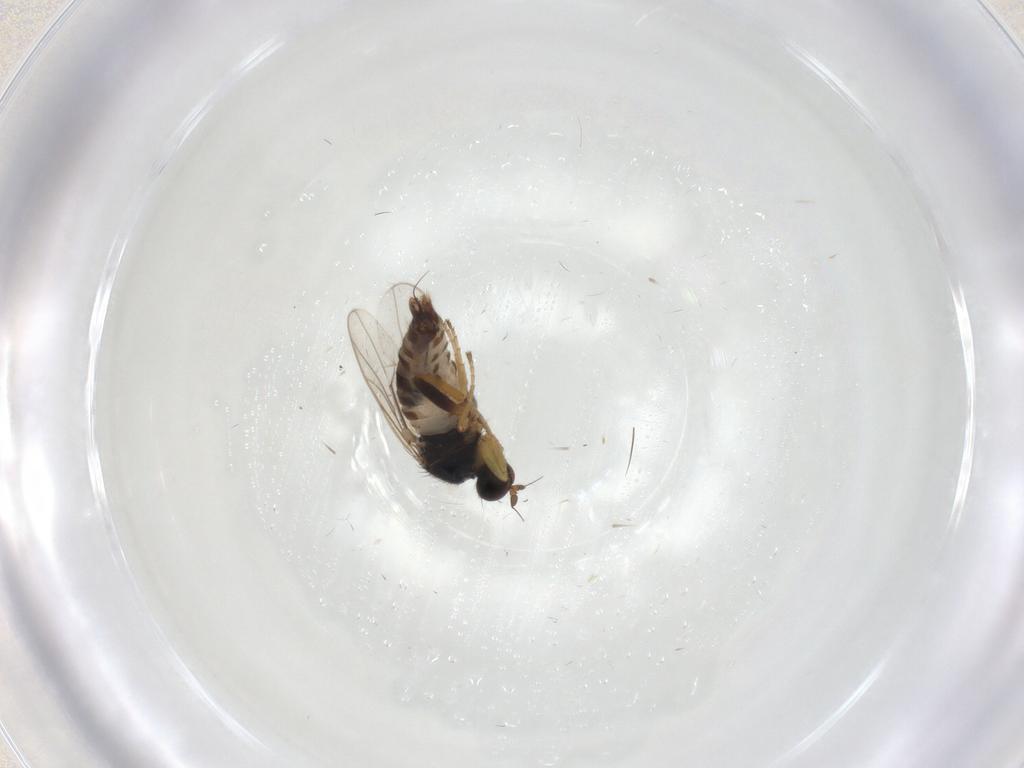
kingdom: Animalia
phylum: Arthropoda
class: Insecta
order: Diptera
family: Hybotidae
